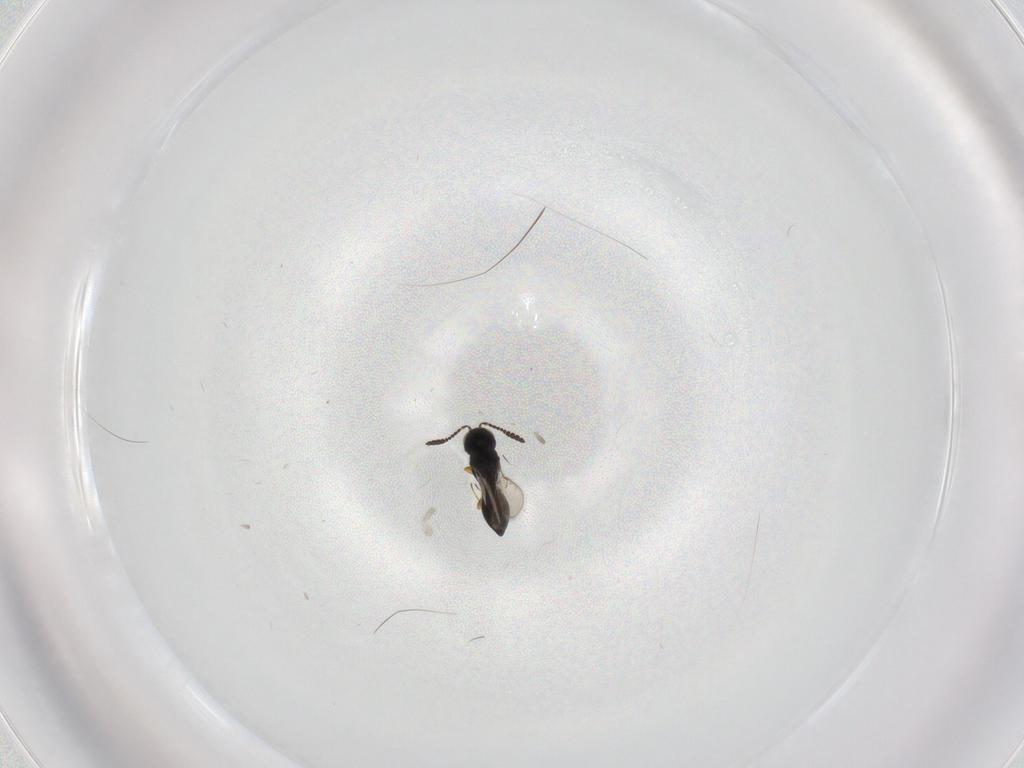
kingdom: Animalia
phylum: Arthropoda
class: Insecta
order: Hymenoptera
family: Scelionidae
